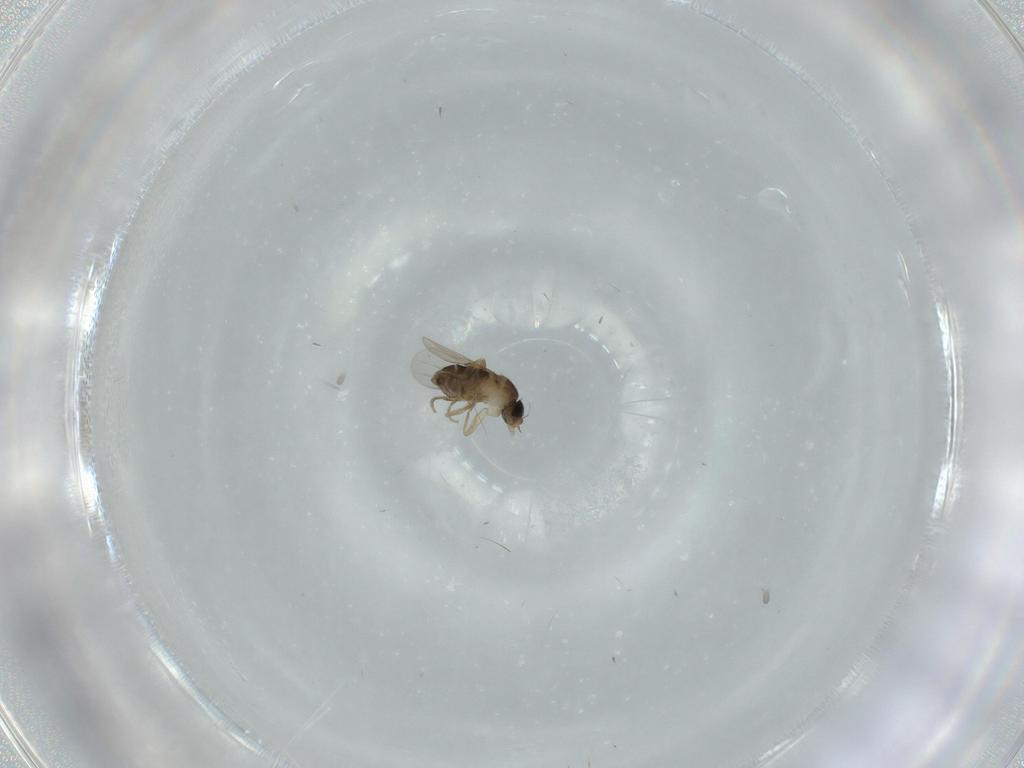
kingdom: Animalia
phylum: Arthropoda
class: Insecta
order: Diptera
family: Phoridae
